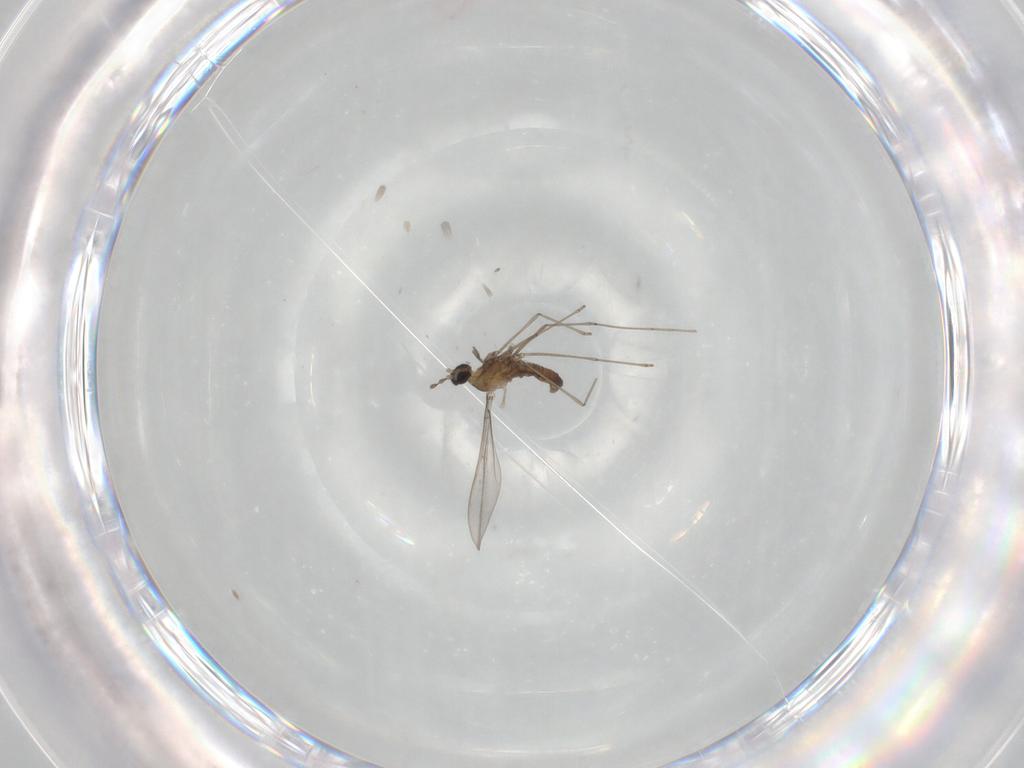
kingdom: Animalia
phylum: Arthropoda
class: Insecta
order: Diptera
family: Cecidomyiidae
